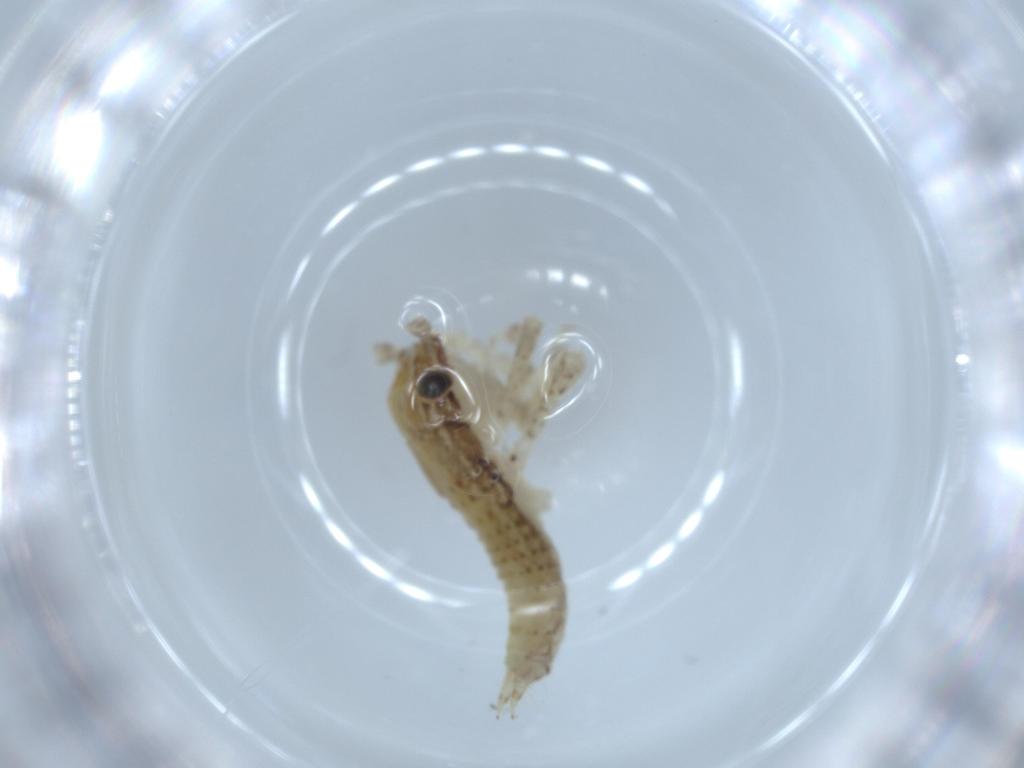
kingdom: Animalia
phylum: Arthropoda
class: Insecta
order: Orthoptera
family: Gryllidae
